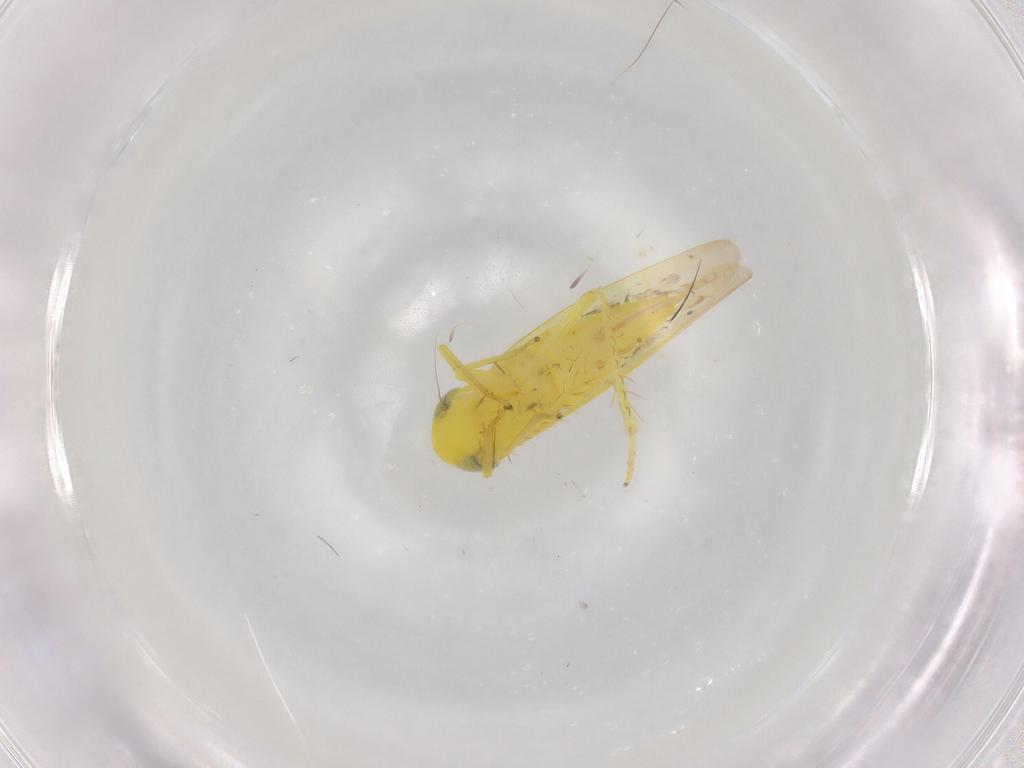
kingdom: Animalia
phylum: Arthropoda
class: Insecta
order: Hemiptera
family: Cicadellidae
